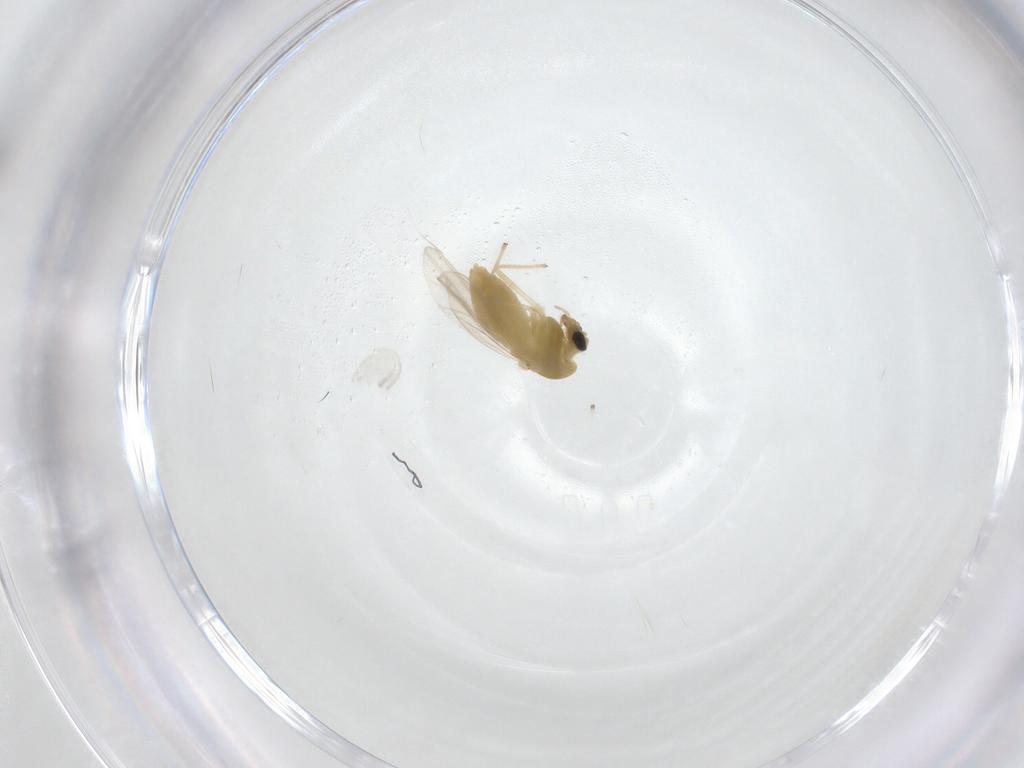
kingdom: Animalia
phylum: Arthropoda
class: Insecta
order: Diptera
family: Chironomidae
